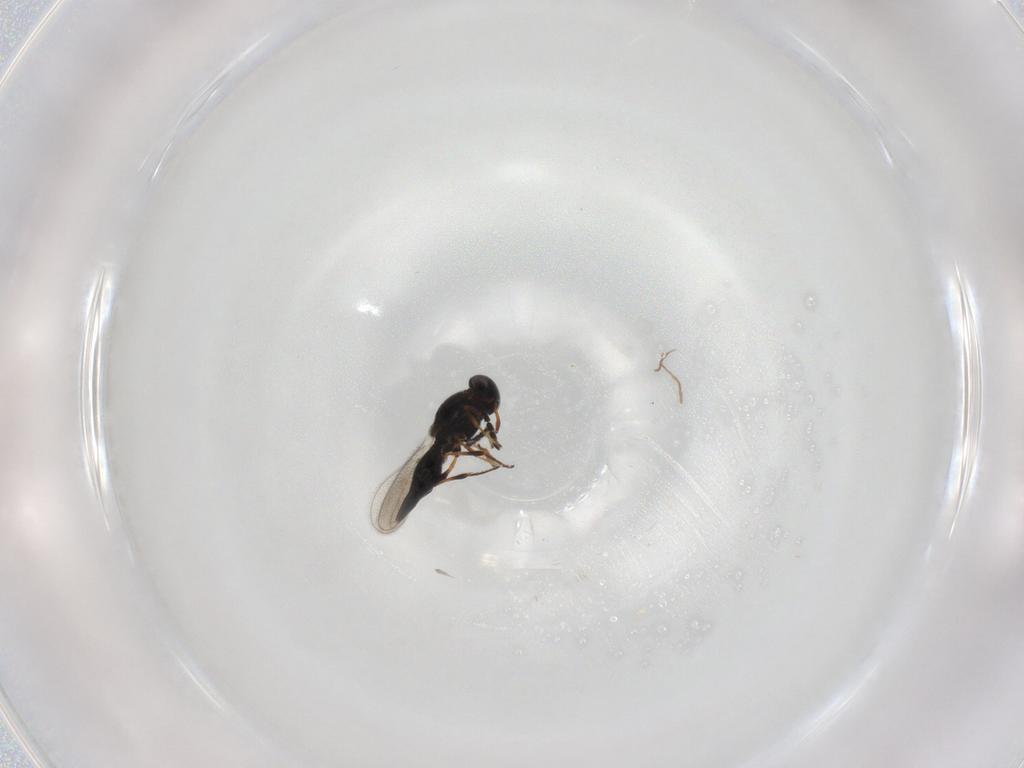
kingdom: Animalia
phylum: Arthropoda
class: Insecta
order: Hymenoptera
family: Platygastridae
